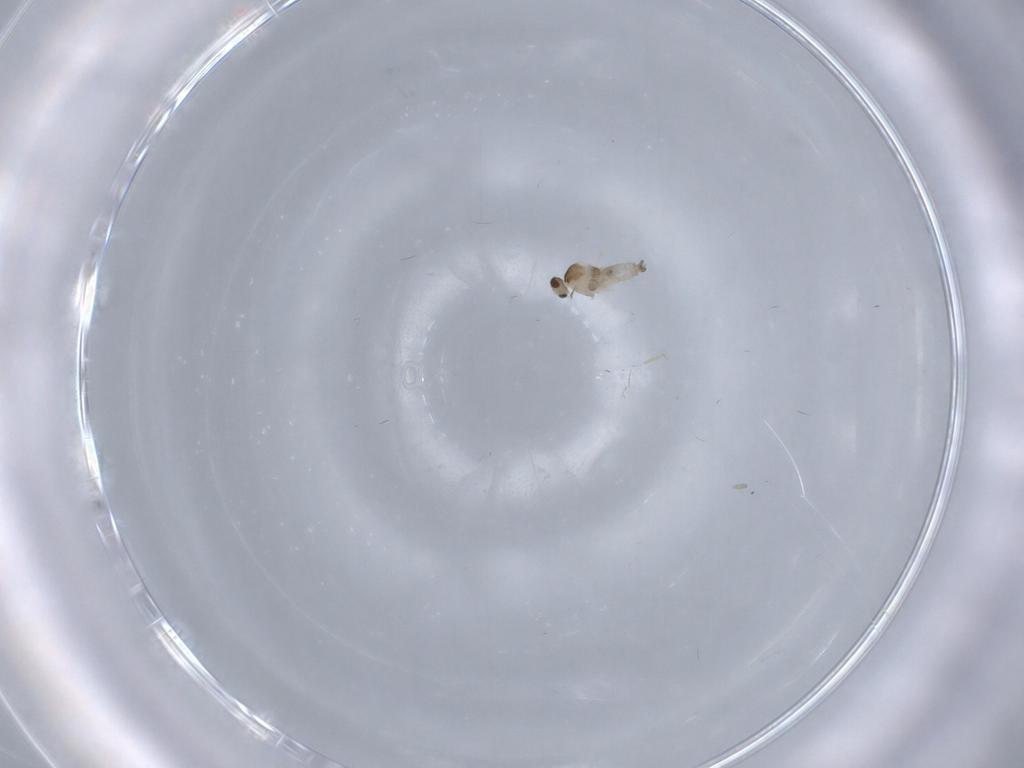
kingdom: Animalia
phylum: Arthropoda
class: Insecta
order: Diptera
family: Cecidomyiidae
